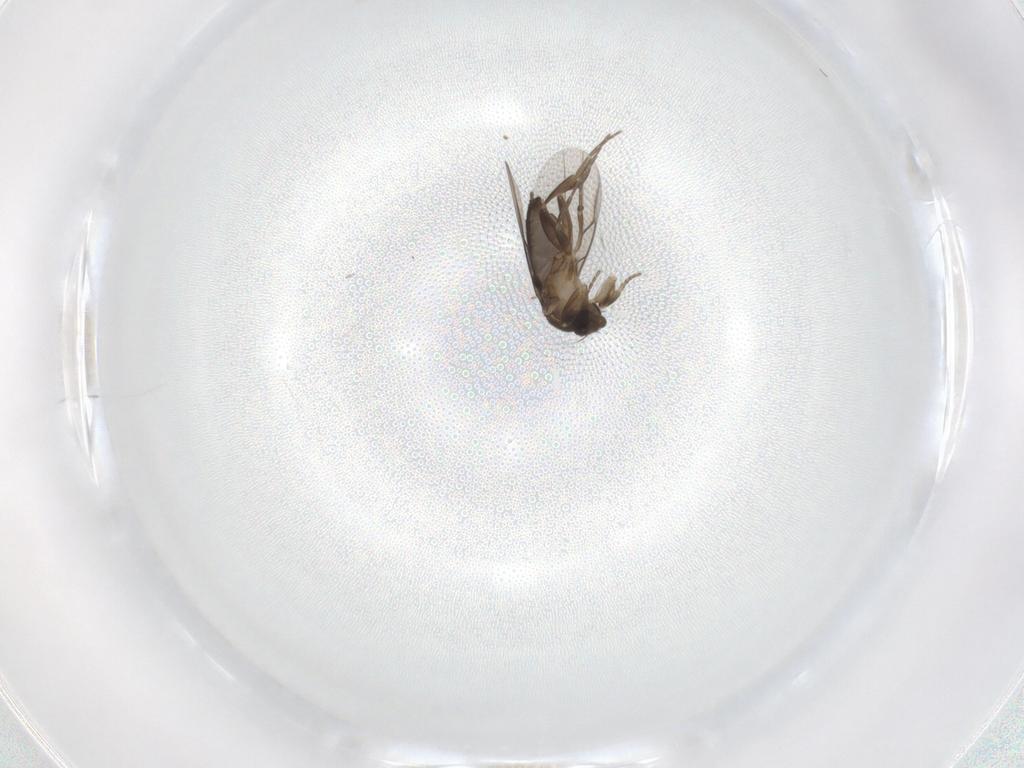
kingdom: Animalia
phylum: Arthropoda
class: Insecta
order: Diptera
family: Phoridae
